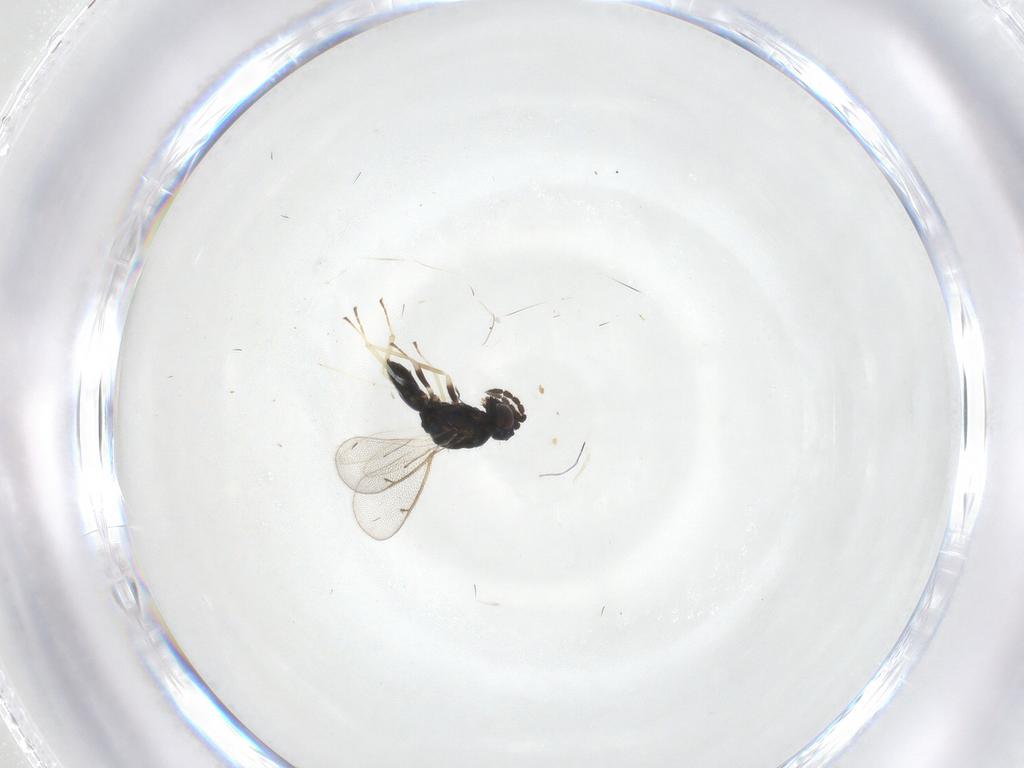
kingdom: Animalia
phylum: Arthropoda
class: Insecta
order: Hymenoptera
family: Eulophidae
